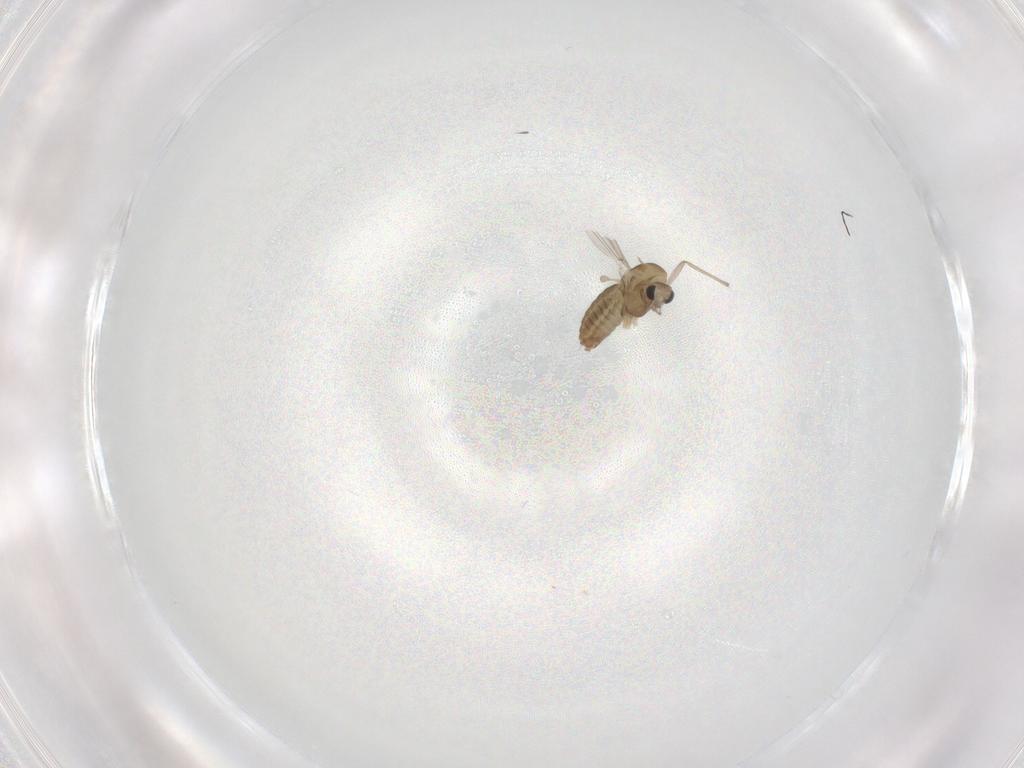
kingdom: Animalia
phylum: Arthropoda
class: Insecta
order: Diptera
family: Chironomidae
